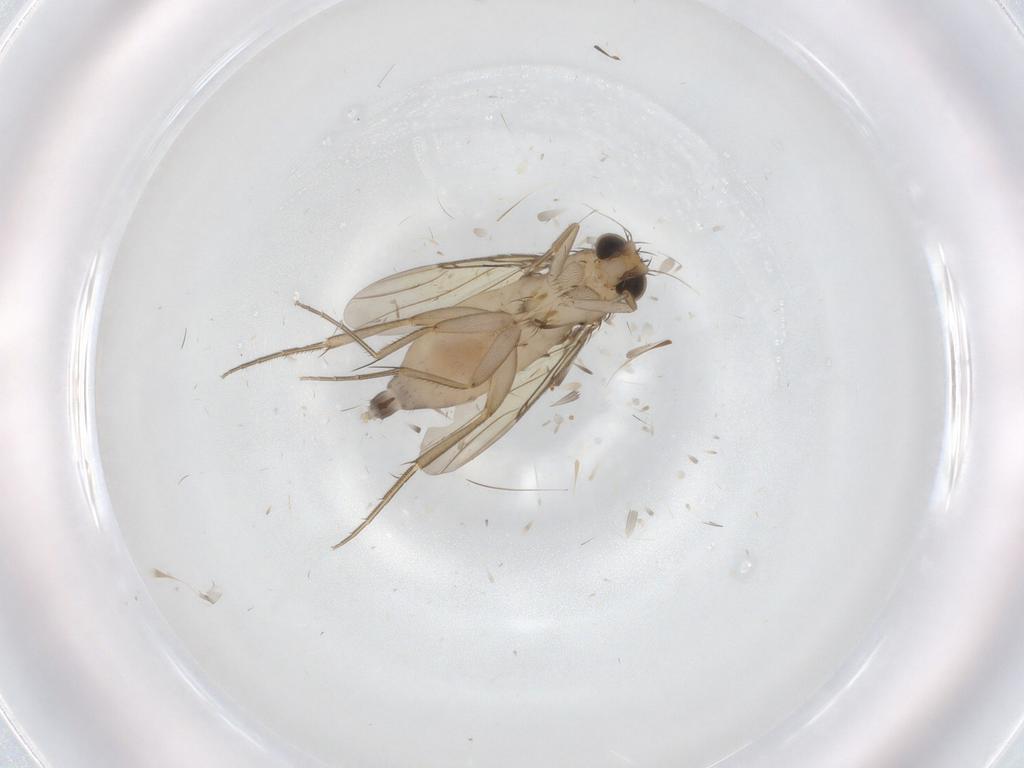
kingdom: Animalia
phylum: Arthropoda
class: Insecta
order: Diptera
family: Phoridae
